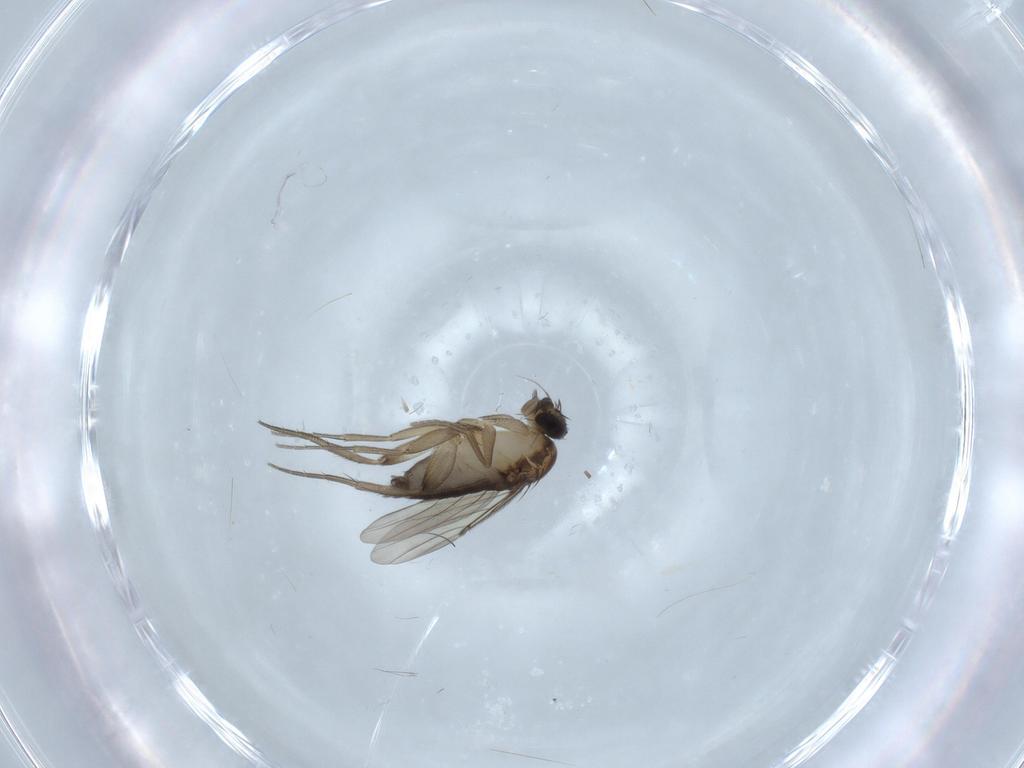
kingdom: Animalia
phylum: Arthropoda
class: Insecta
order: Diptera
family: Phoridae
